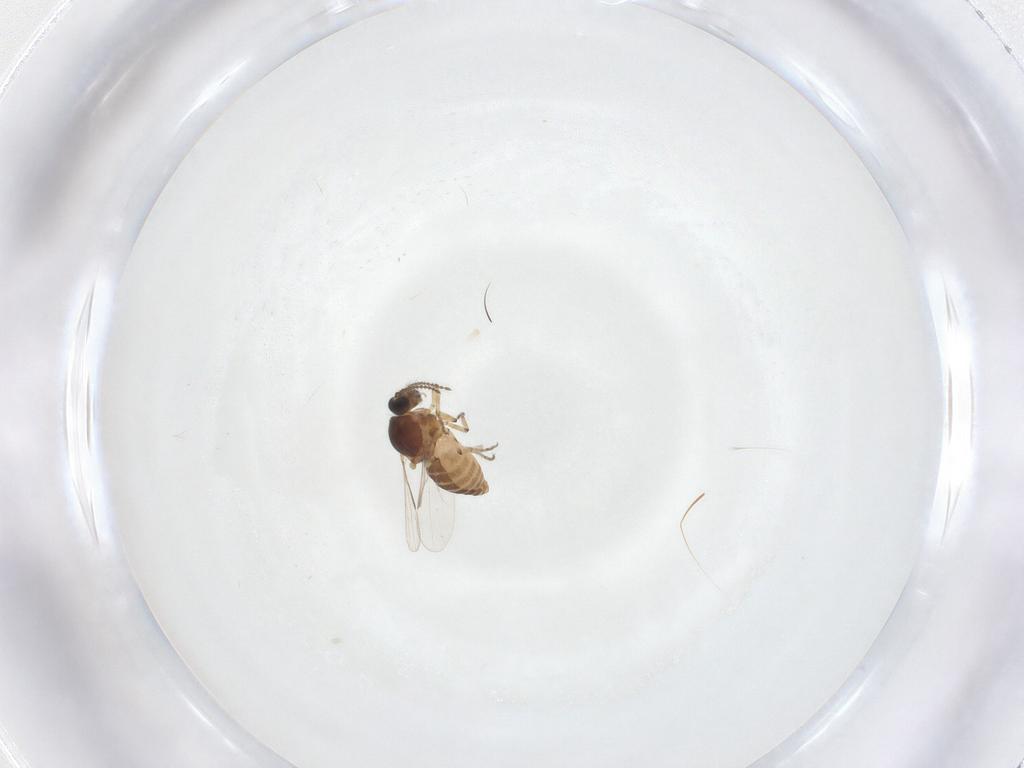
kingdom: Animalia
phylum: Arthropoda
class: Insecta
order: Diptera
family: Ceratopogonidae
